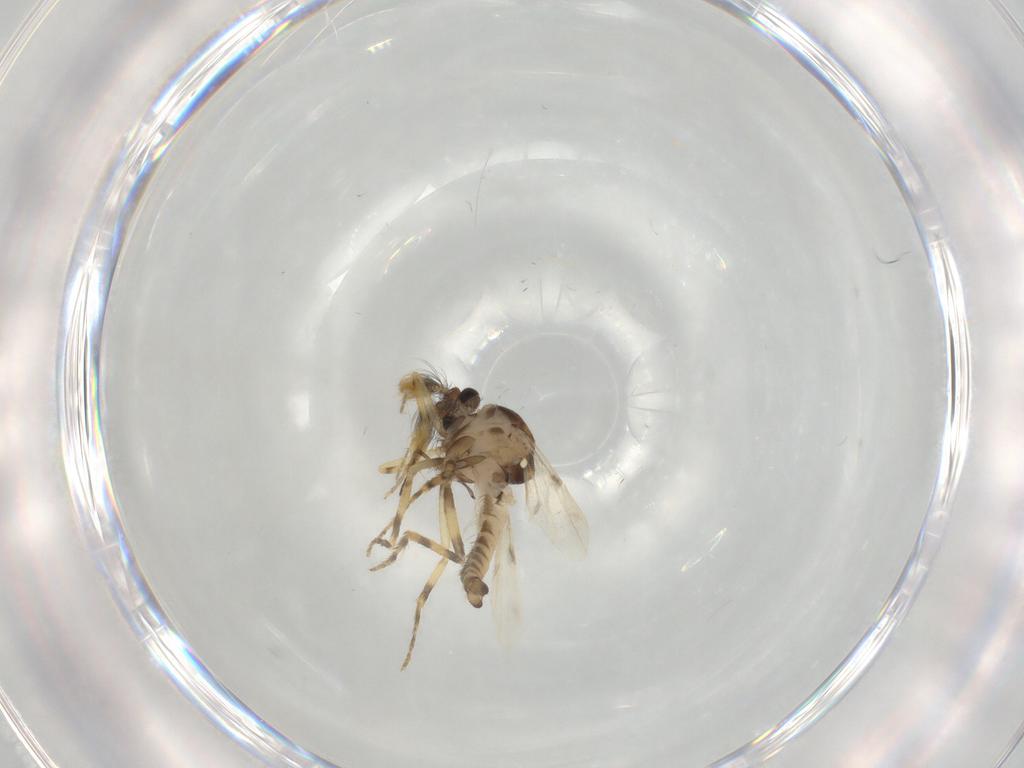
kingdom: Animalia
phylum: Arthropoda
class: Insecta
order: Diptera
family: Ceratopogonidae
